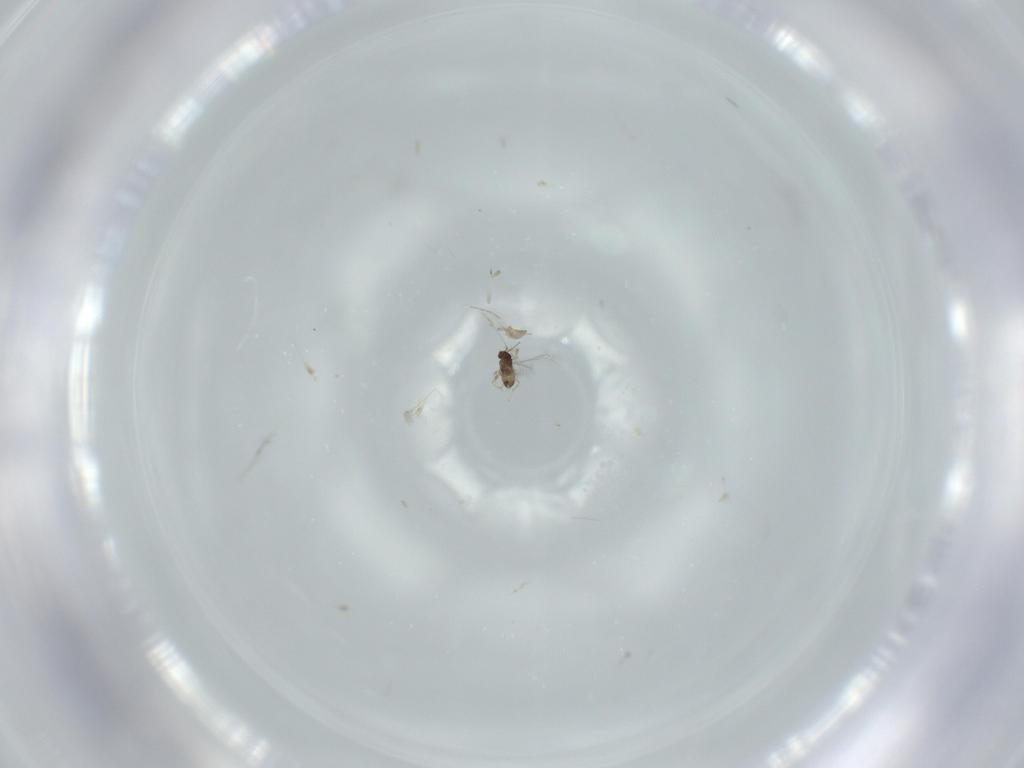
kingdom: Animalia
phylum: Arthropoda
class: Insecta
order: Hymenoptera
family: Mymaridae
